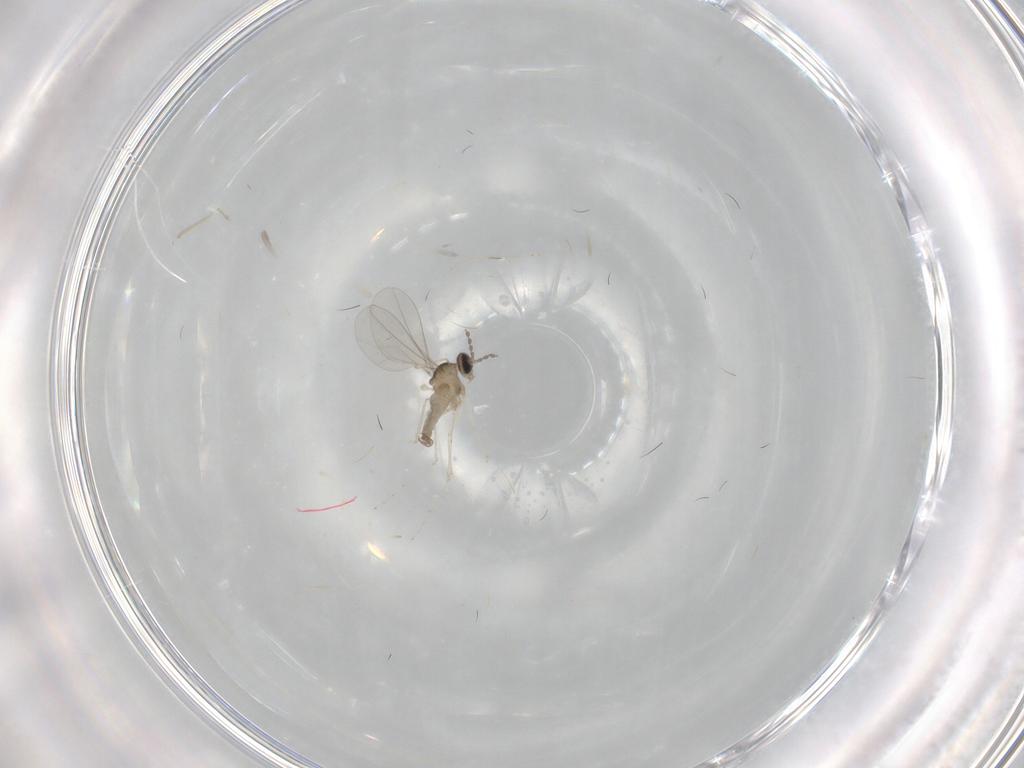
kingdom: Animalia
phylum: Arthropoda
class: Insecta
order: Diptera
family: Cecidomyiidae
